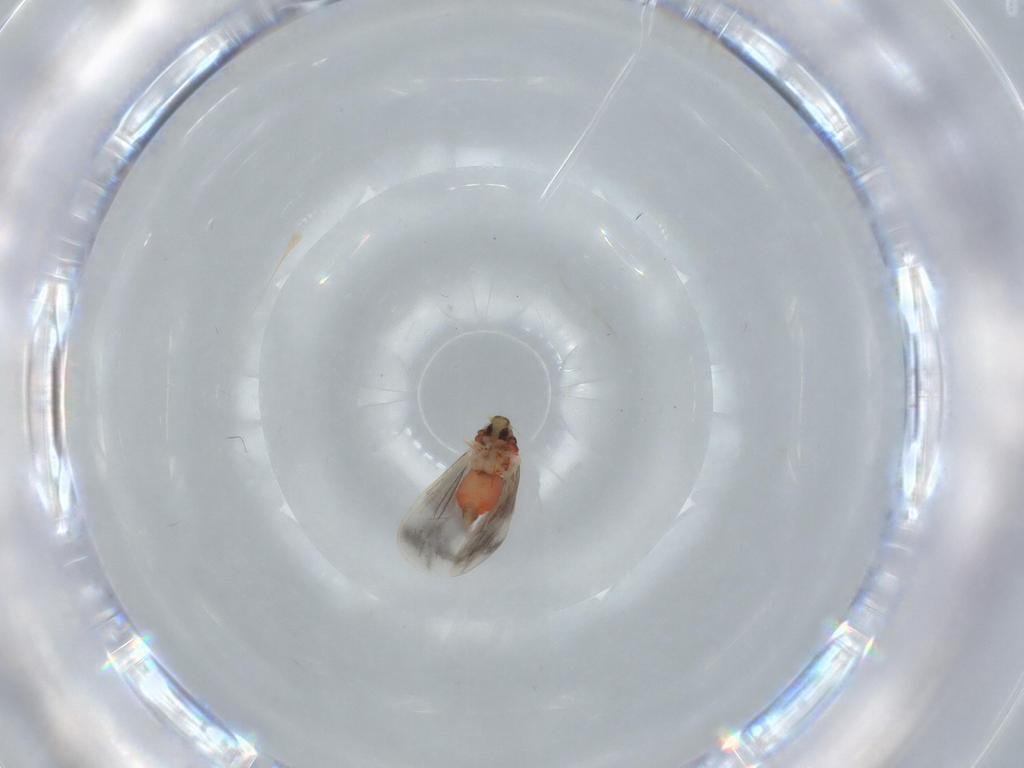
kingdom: Animalia
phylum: Arthropoda
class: Insecta
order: Hemiptera
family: Aleyrodidae
